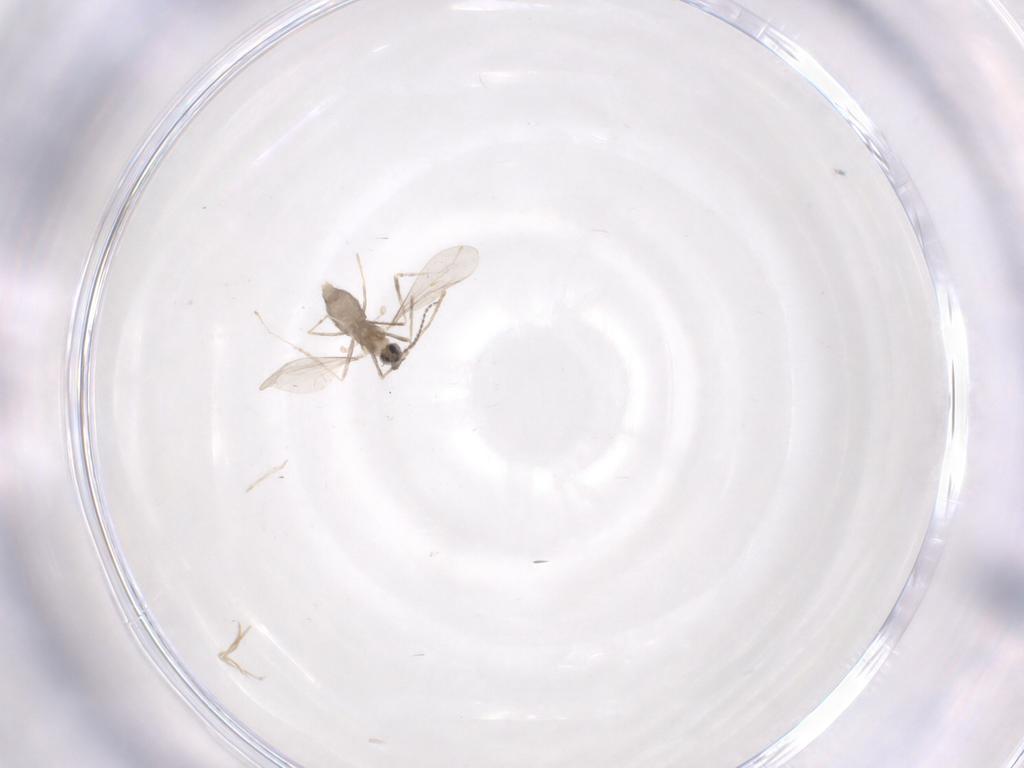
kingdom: Animalia
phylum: Arthropoda
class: Insecta
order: Diptera
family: Cecidomyiidae
